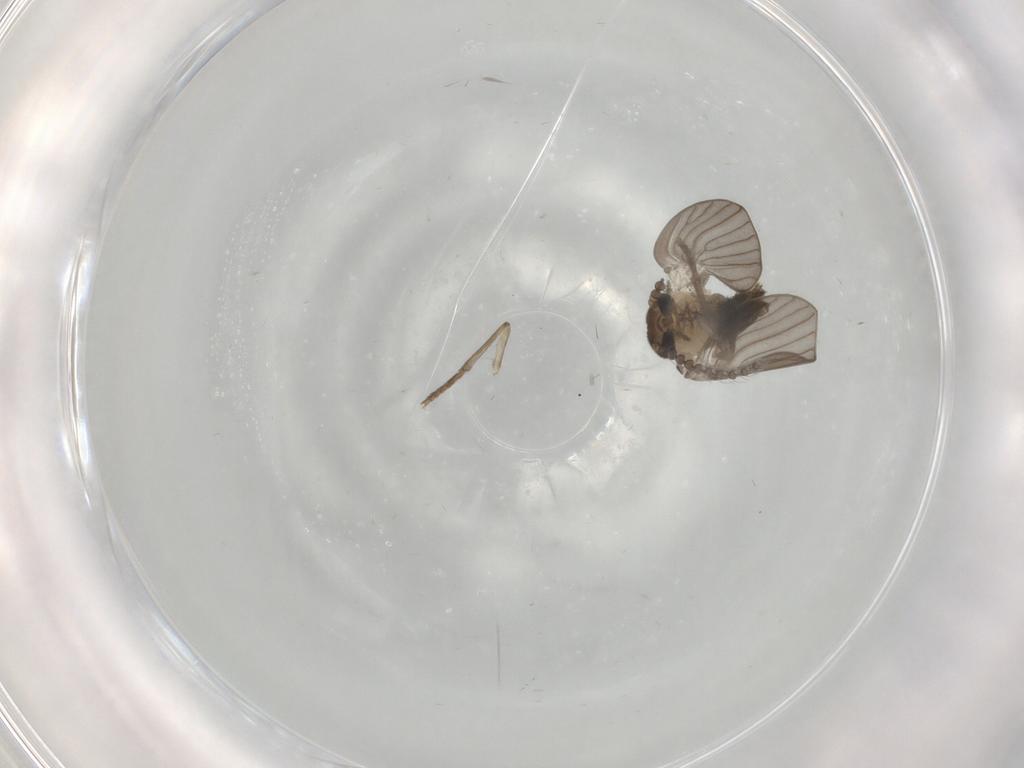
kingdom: Animalia
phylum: Arthropoda
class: Insecta
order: Diptera
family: Psychodidae
